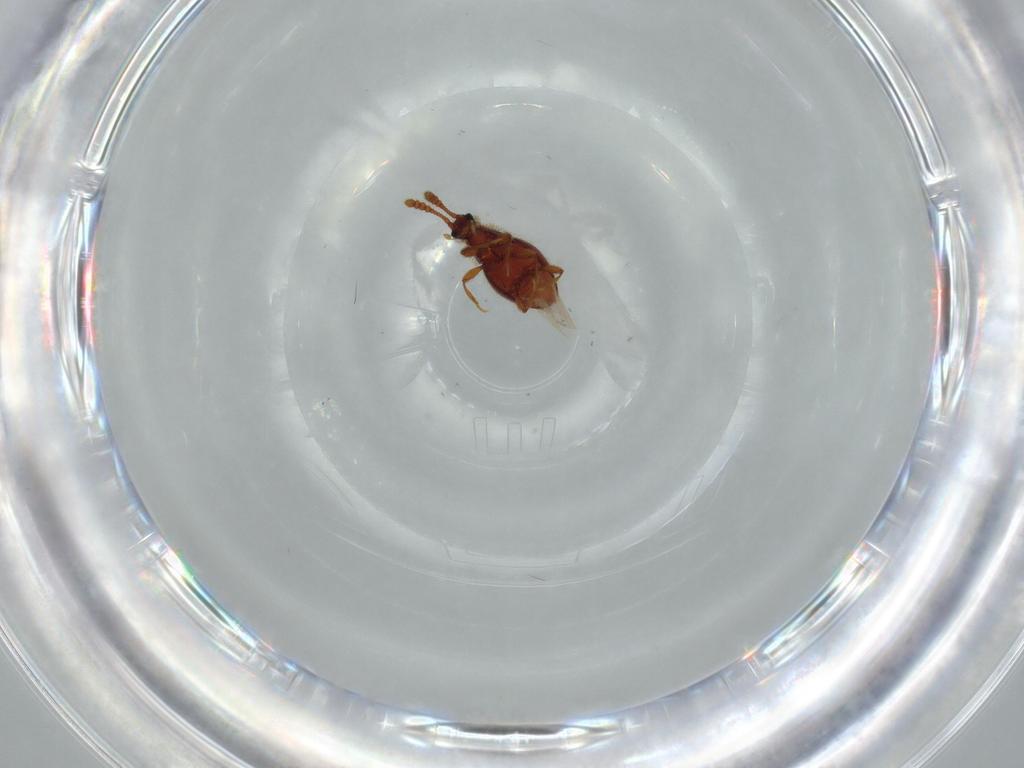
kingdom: Animalia
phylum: Arthropoda
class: Insecta
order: Coleoptera
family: Staphylinidae
